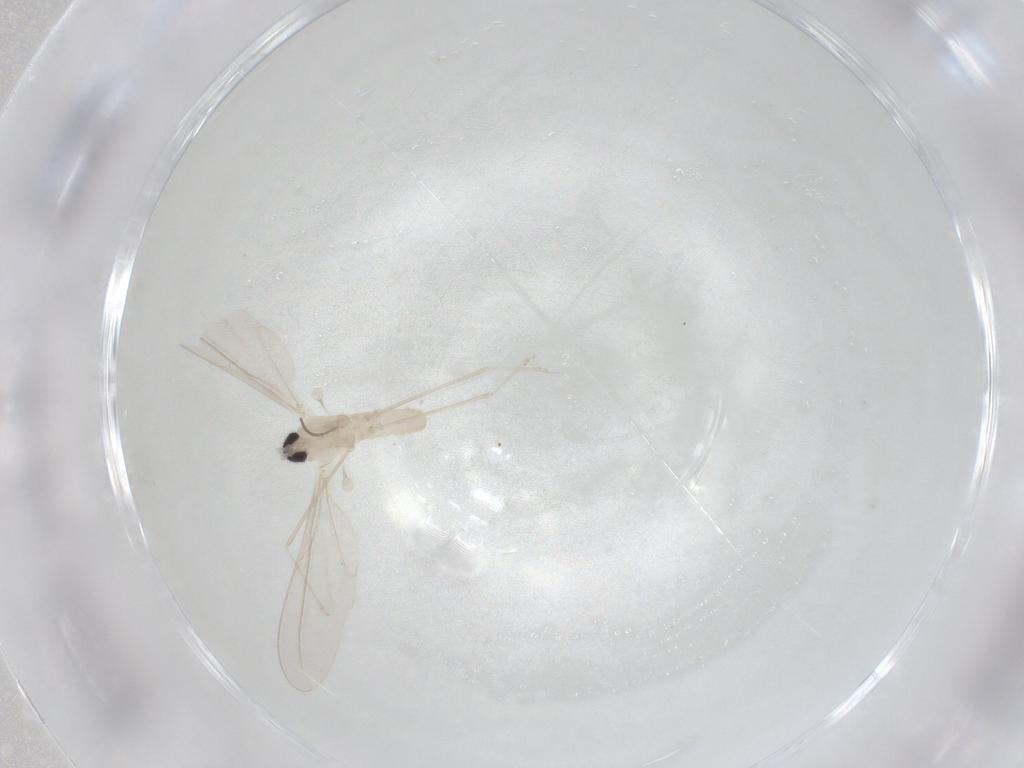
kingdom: Animalia
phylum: Arthropoda
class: Insecta
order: Diptera
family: Cecidomyiidae
